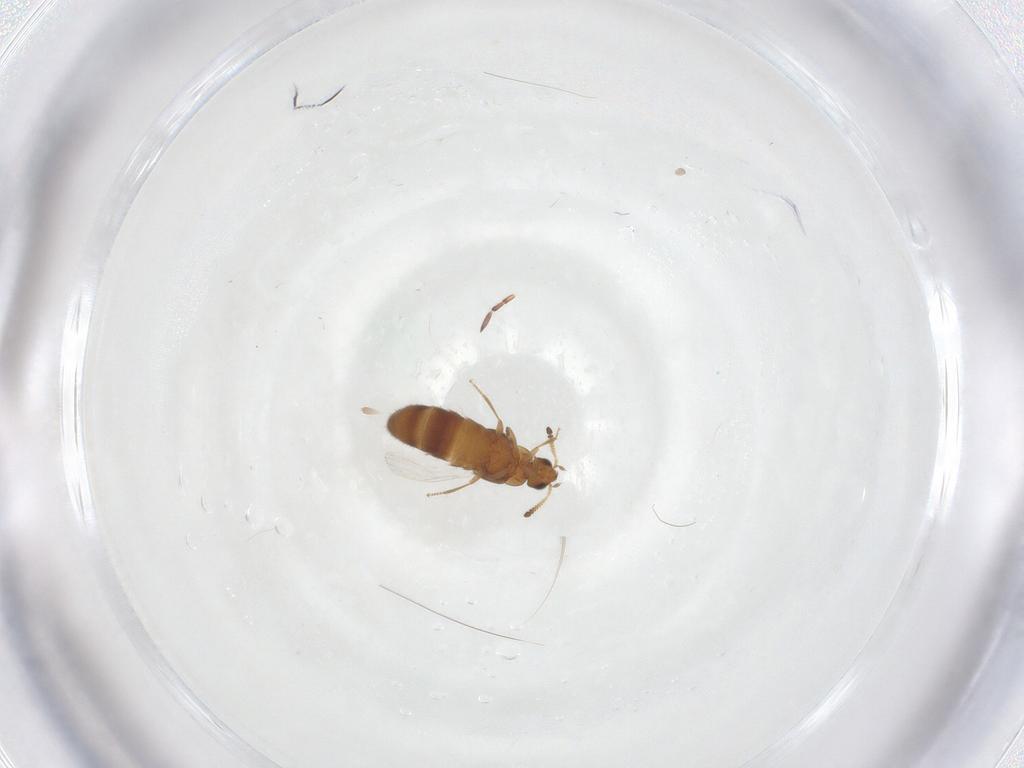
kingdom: Animalia
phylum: Arthropoda
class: Insecta
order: Coleoptera
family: Staphylinidae
